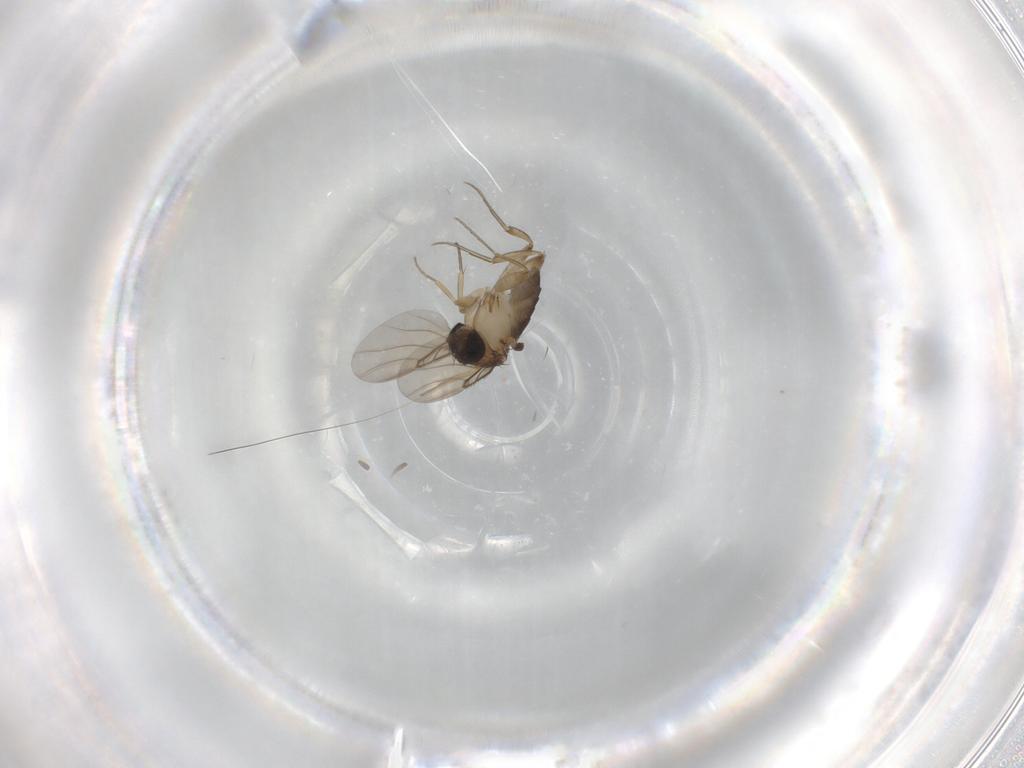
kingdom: Animalia
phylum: Arthropoda
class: Insecta
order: Diptera
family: Phoridae
